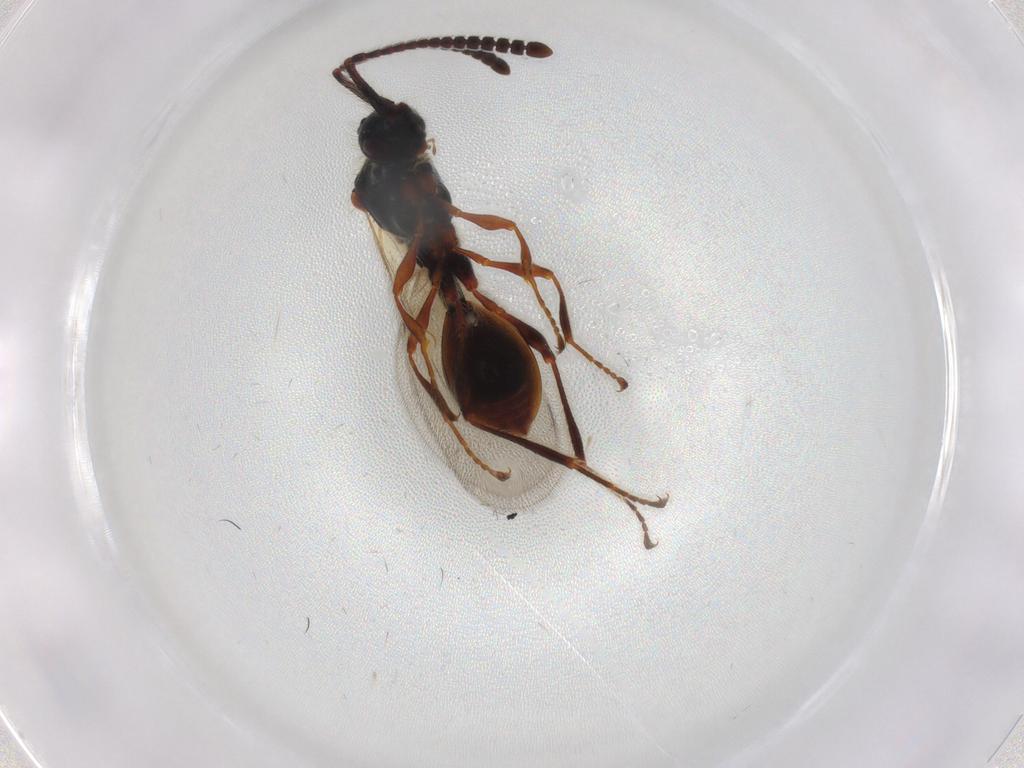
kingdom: Animalia
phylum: Arthropoda
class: Insecta
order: Hymenoptera
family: Diapriidae
